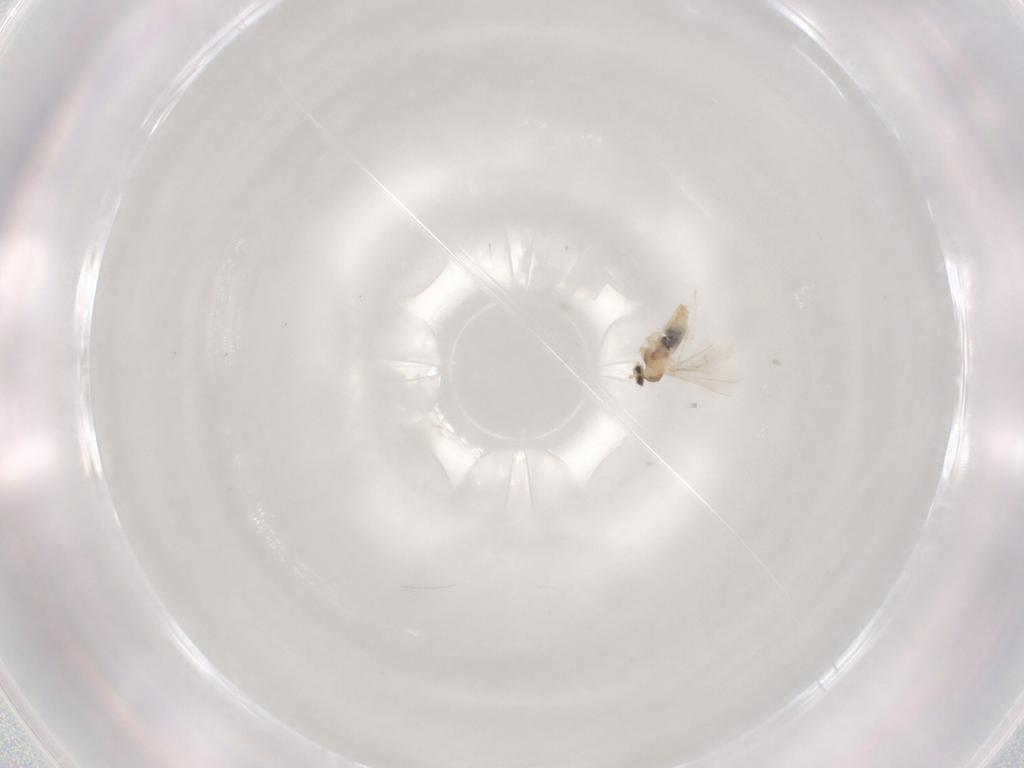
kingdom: Animalia
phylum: Arthropoda
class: Insecta
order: Diptera
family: Cecidomyiidae
